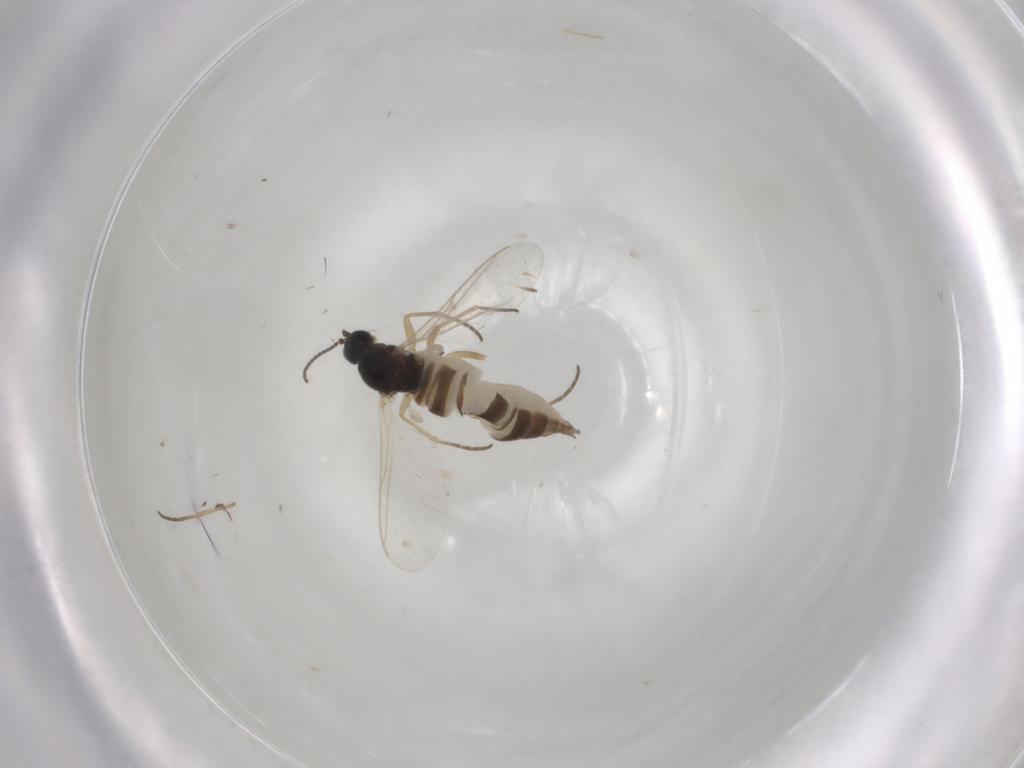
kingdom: Animalia
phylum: Arthropoda
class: Insecta
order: Diptera
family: Sciaridae
